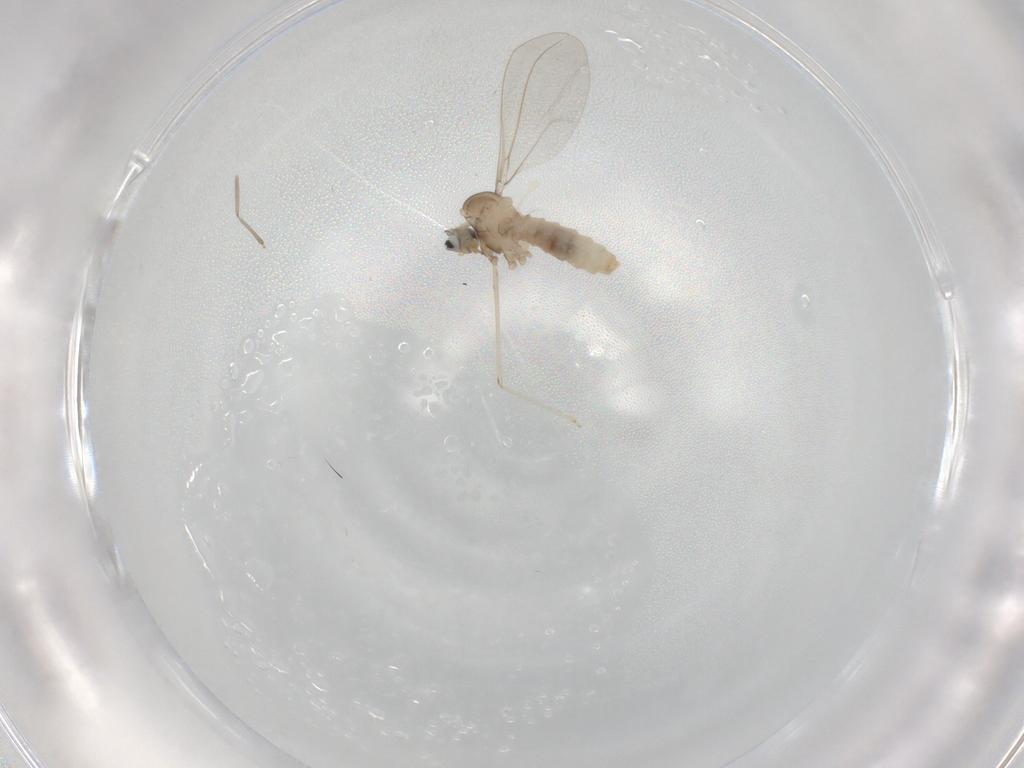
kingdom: Animalia
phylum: Arthropoda
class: Insecta
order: Diptera
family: Cecidomyiidae
